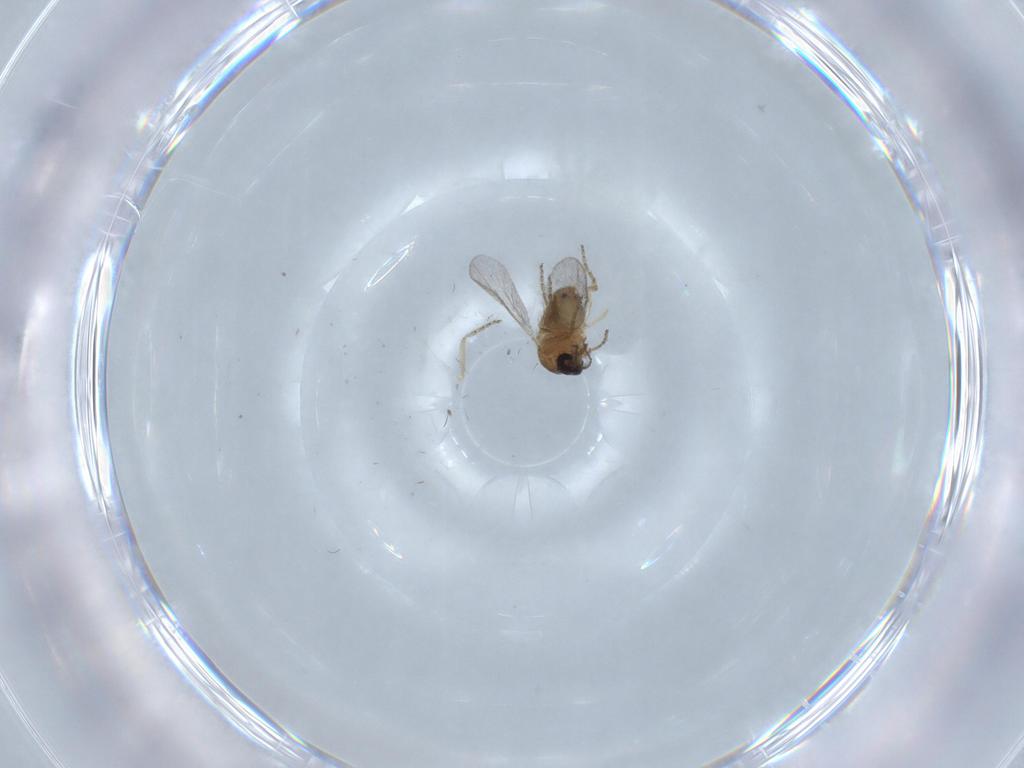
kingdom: Animalia
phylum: Arthropoda
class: Insecta
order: Diptera
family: Ceratopogonidae
